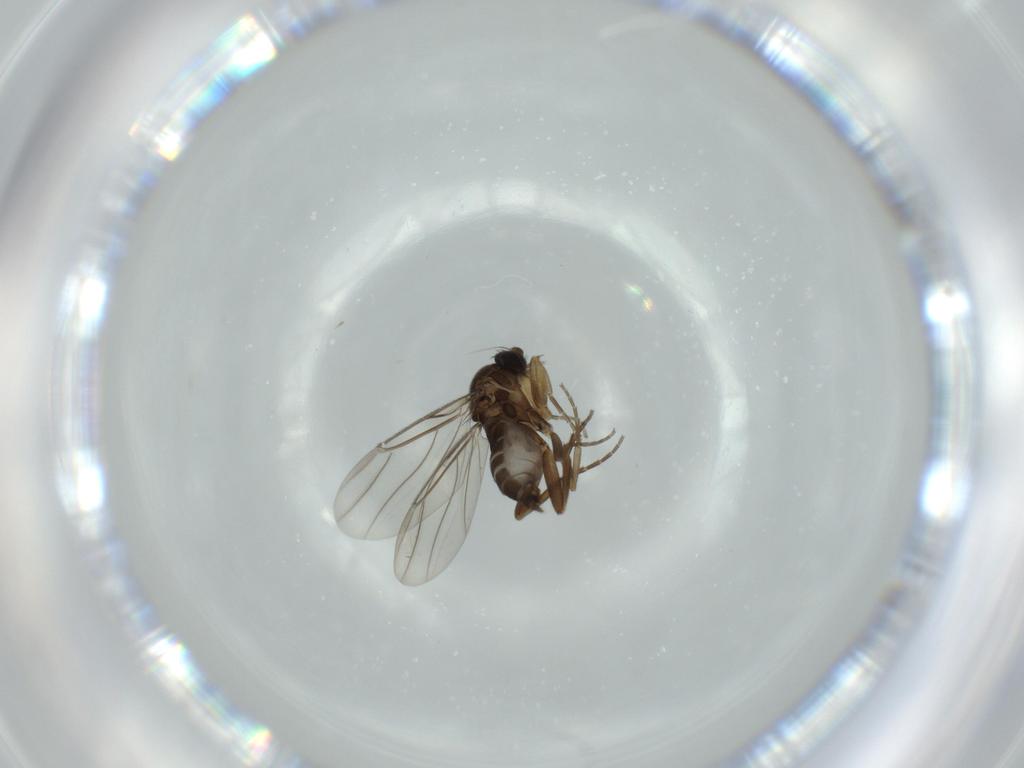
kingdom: Animalia
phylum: Arthropoda
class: Insecta
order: Diptera
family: Phoridae
